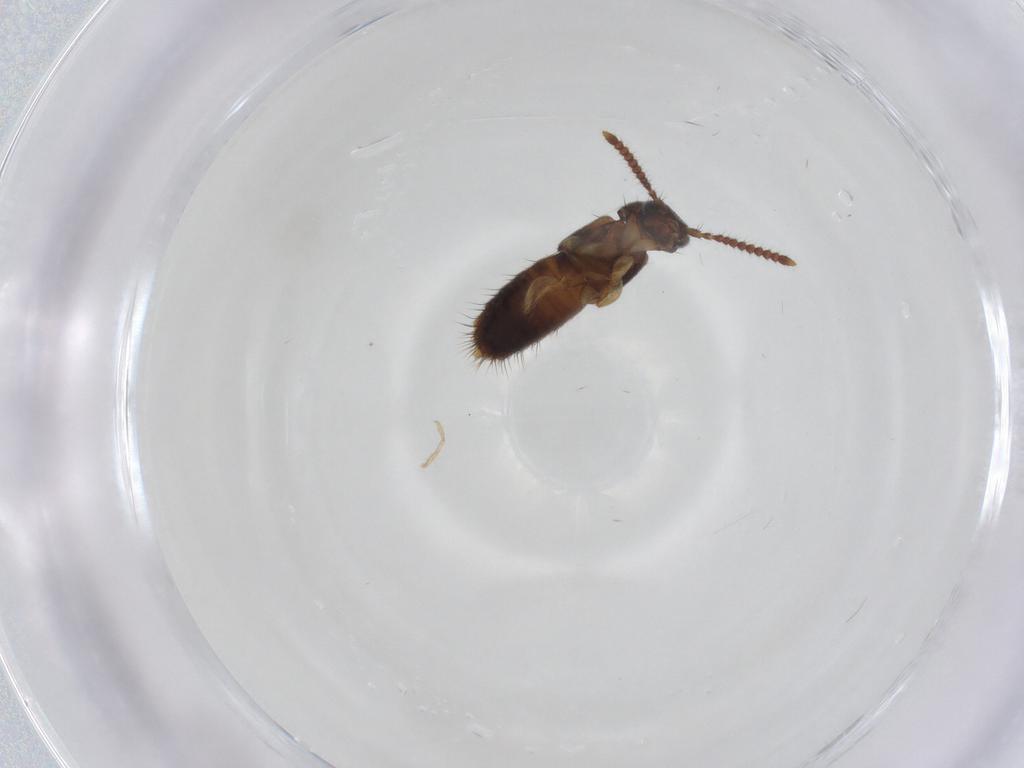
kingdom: Animalia
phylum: Arthropoda
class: Insecta
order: Coleoptera
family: Staphylinidae
